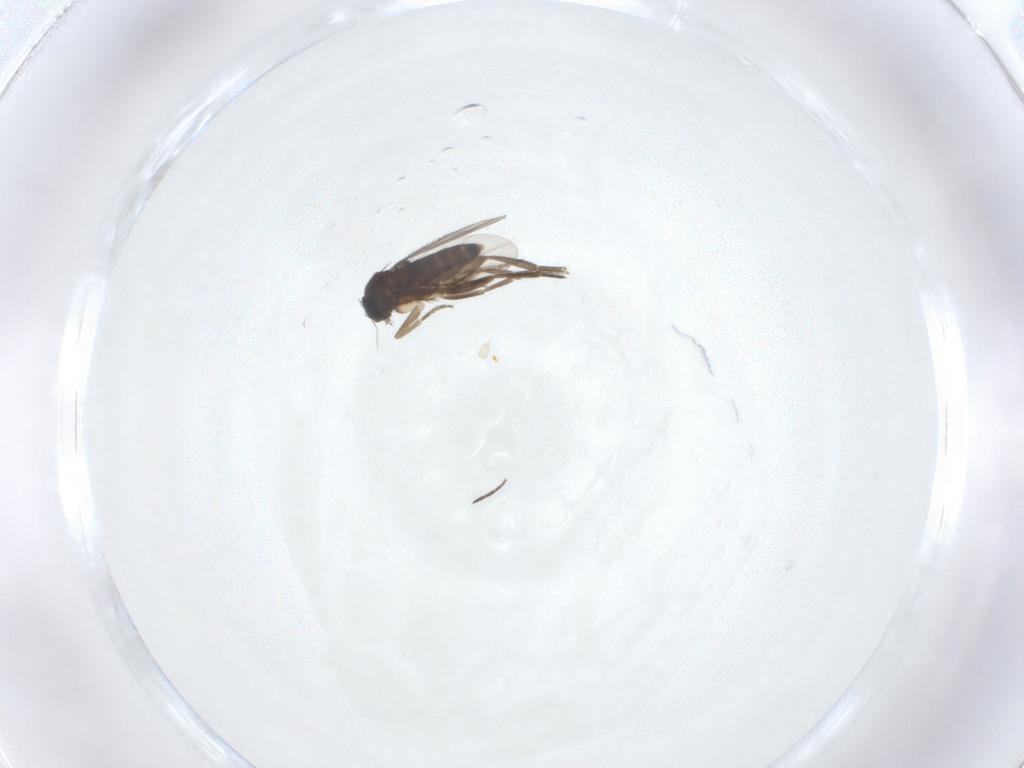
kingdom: Animalia
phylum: Arthropoda
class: Insecta
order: Diptera
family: Phoridae
